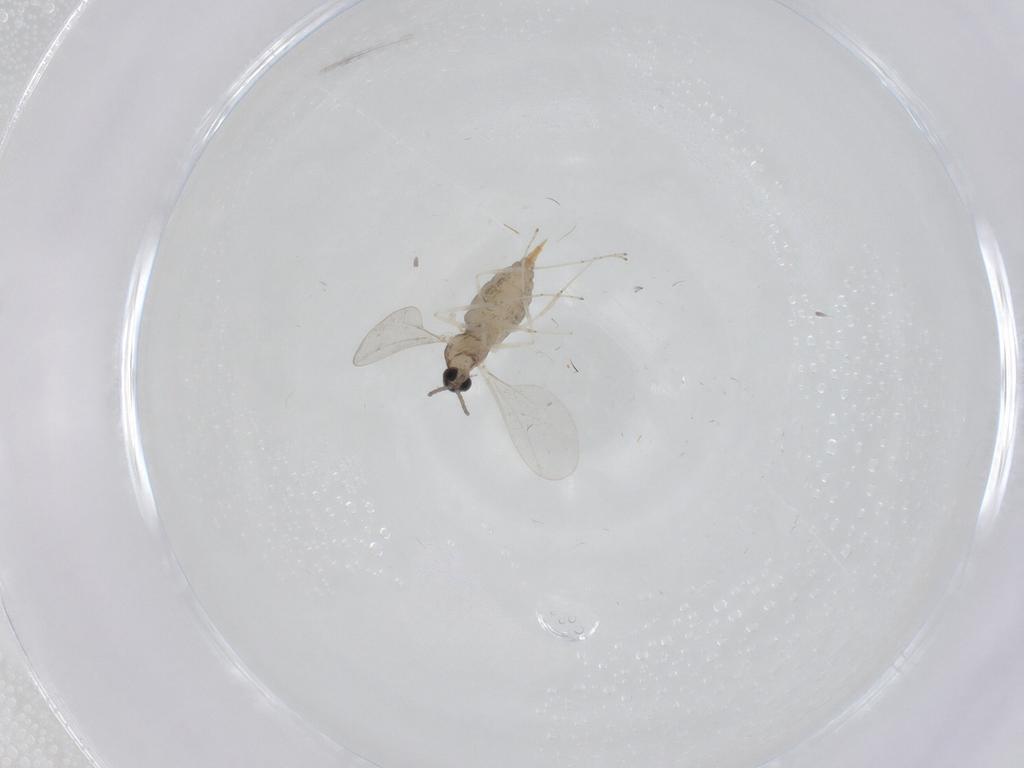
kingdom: Animalia
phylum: Arthropoda
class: Insecta
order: Diptera
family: Cecidomyiidae
